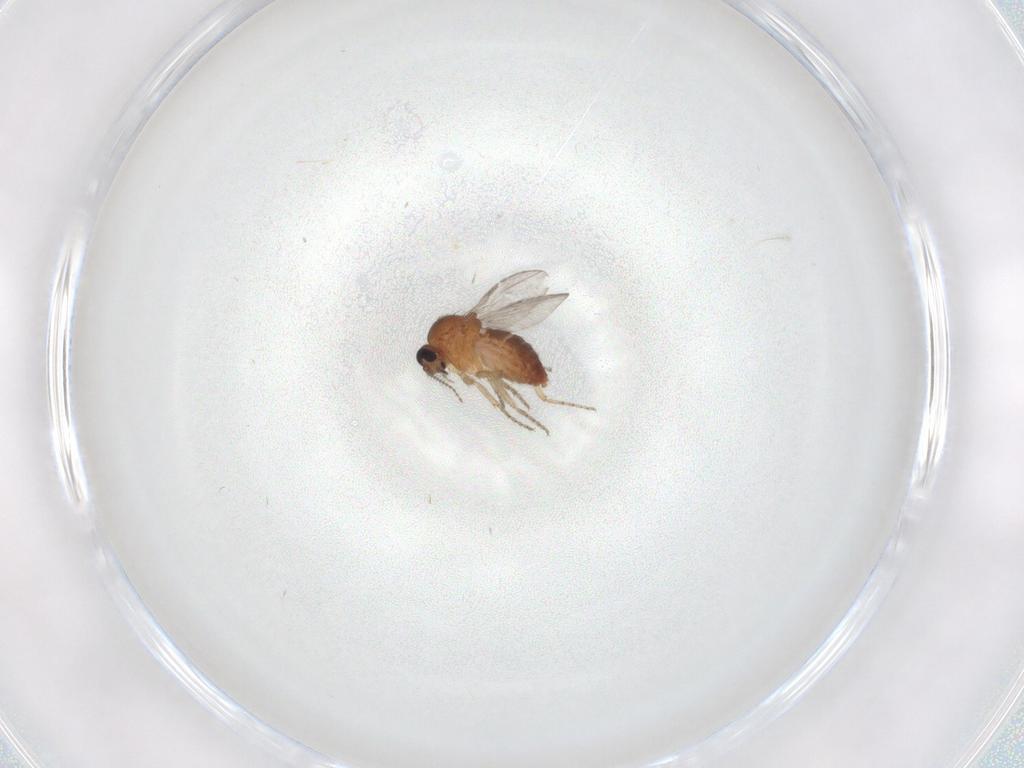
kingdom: Animalia
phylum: Arthropoda
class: Insecta
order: Diptera
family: Ceratopogonidae
